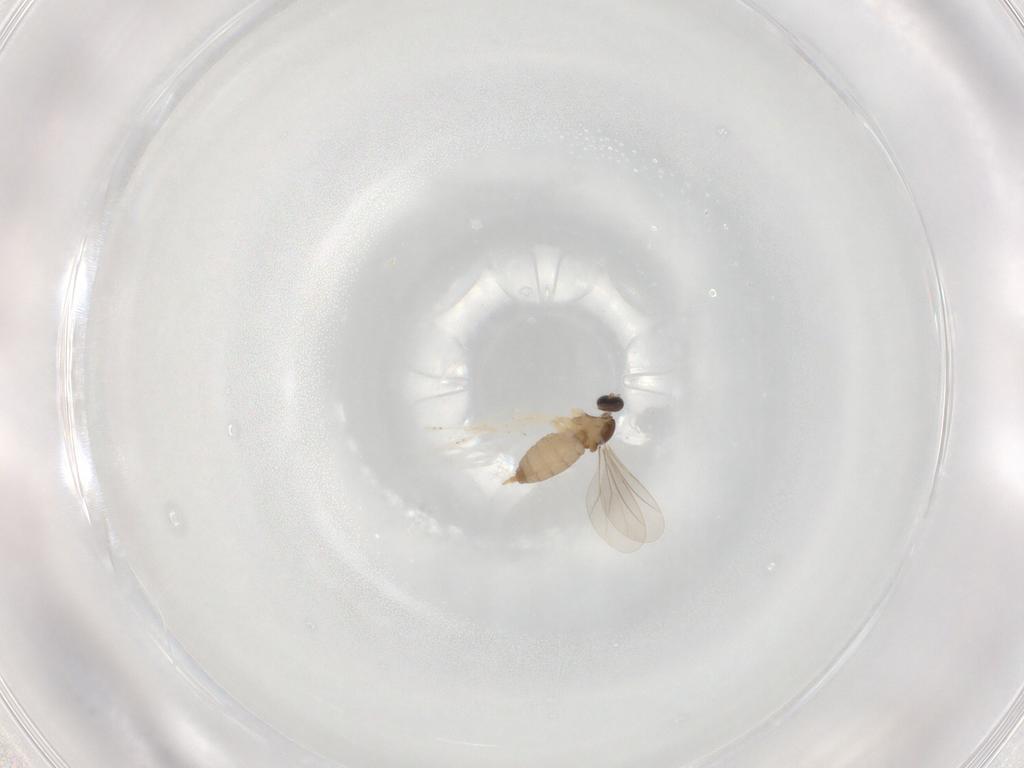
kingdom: Animalia
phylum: Arthropoda
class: Insecta
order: Diptera
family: Cecidomyiidae
